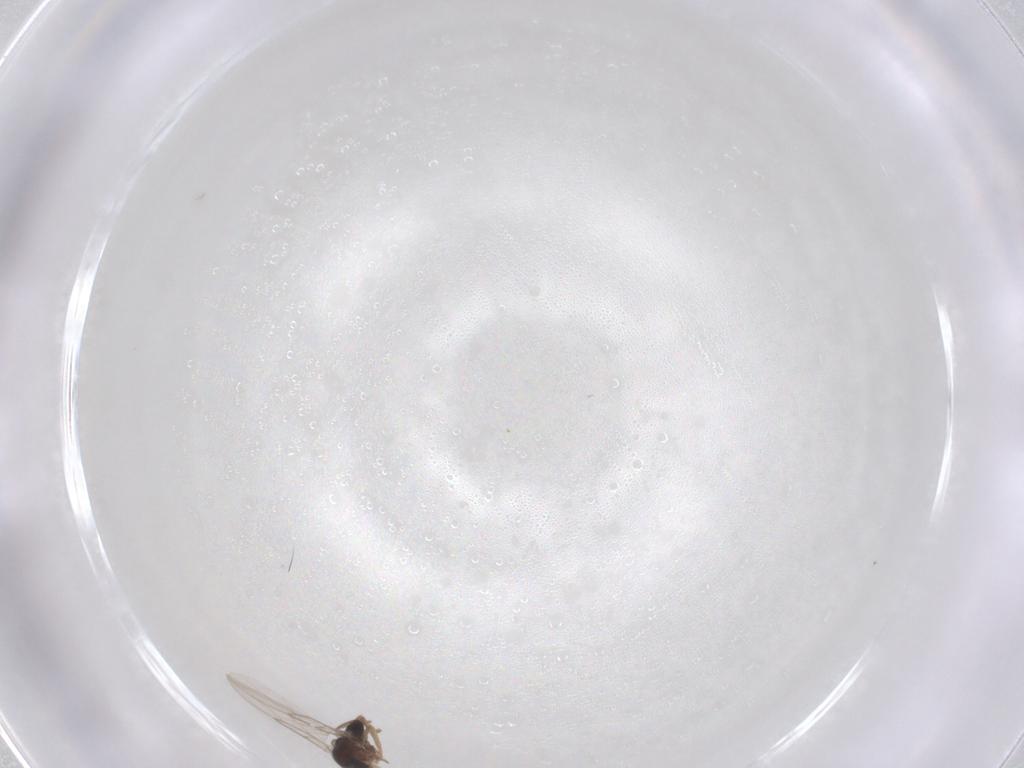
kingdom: Animalia
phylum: Arthropoda
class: Insecta
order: Diptera
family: Phoridae
